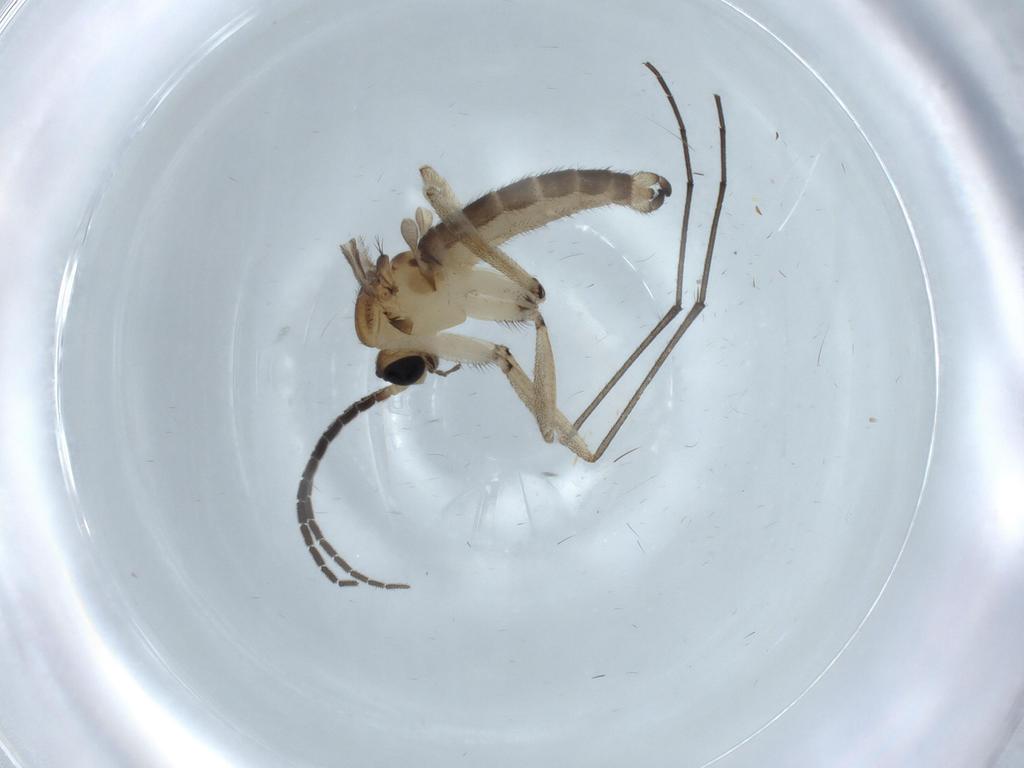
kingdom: Animalia
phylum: Arthropoda
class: Insecta
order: Diptera
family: Sciaridae
